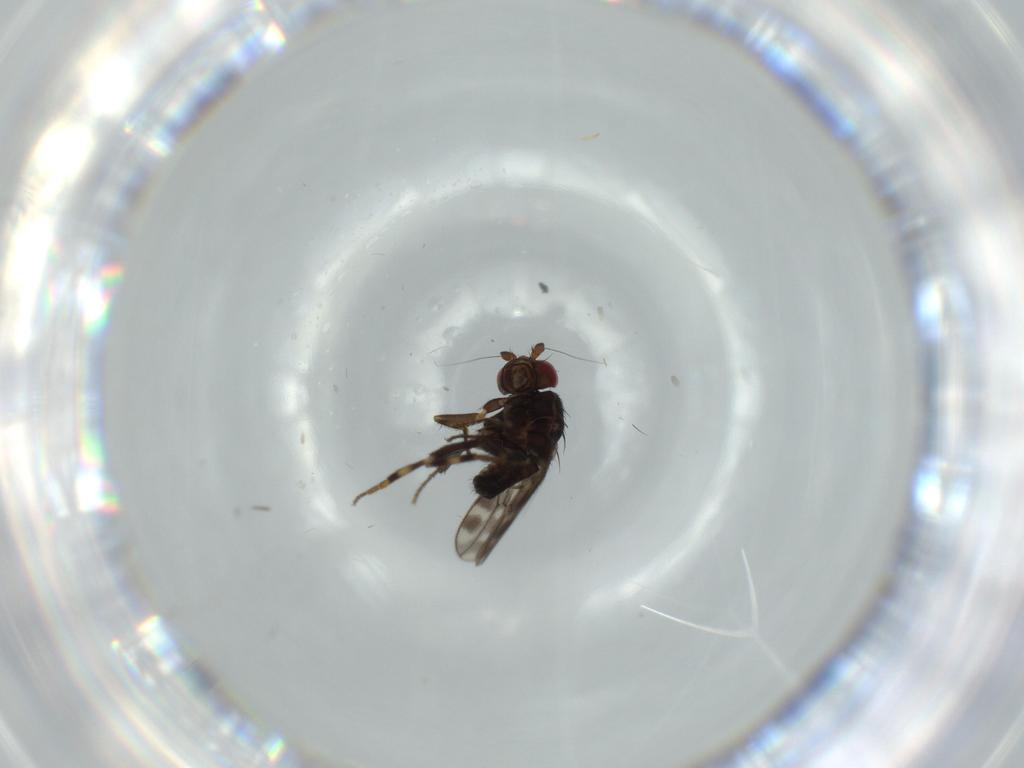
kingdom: Animalia
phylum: Arthropoda
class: Insecta
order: Diptera
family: Sphaeroceridae
